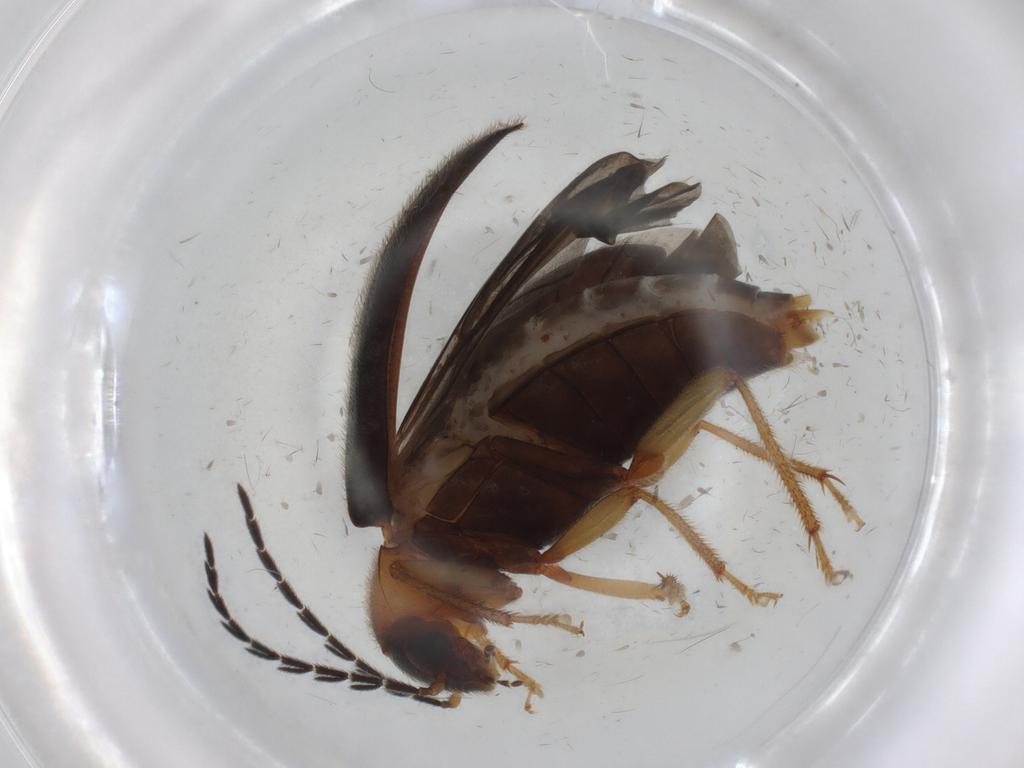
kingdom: Animalia
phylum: Arthropoda
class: Insecta
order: Coleoptera
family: Ptilodactylidae
